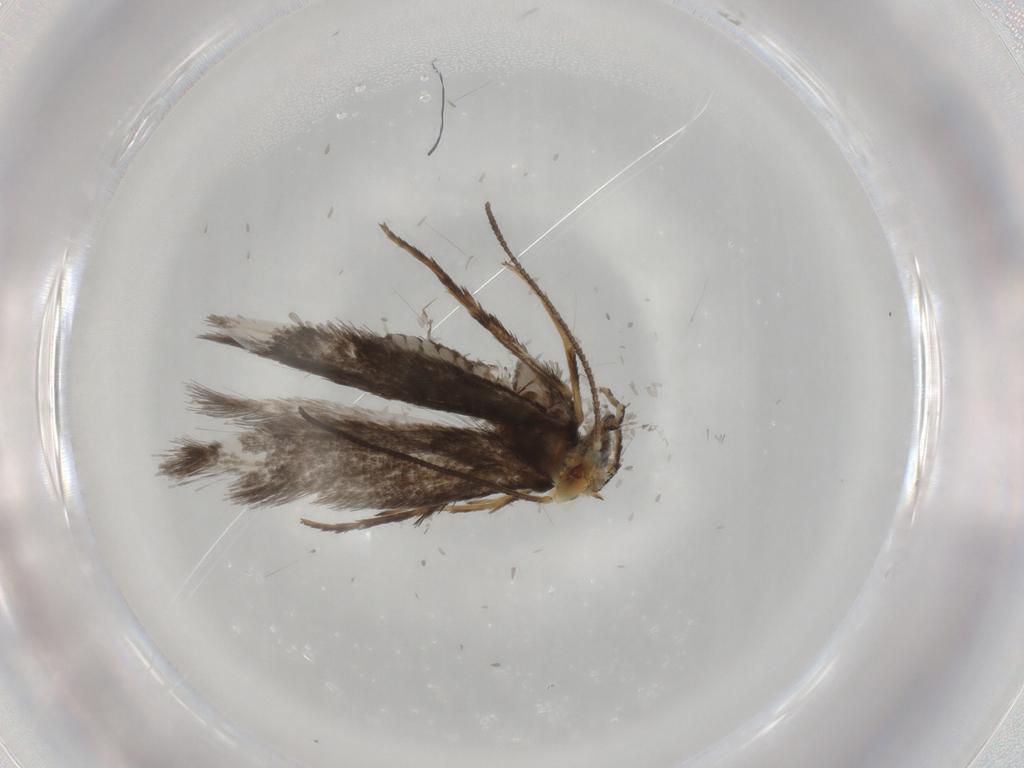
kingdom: Animalia
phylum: Arthropoda
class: Insecta
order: Lepidoptera
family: Nepticulidae
